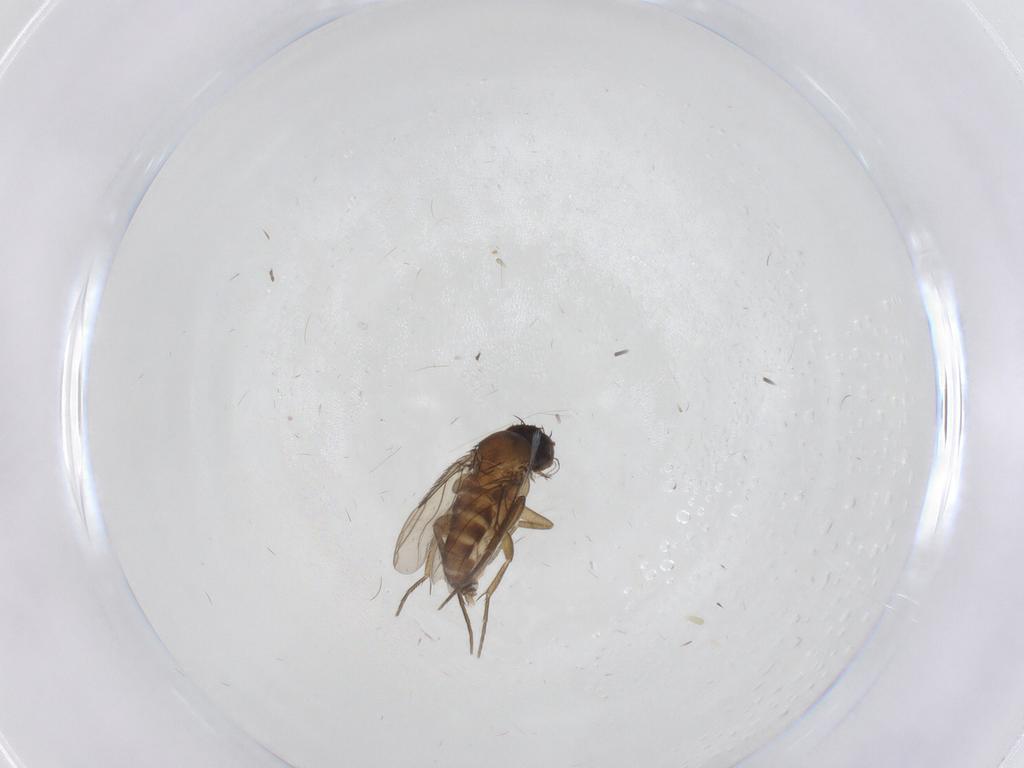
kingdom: Animalia
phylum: Arthropoda
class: Insecta
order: Diptera
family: Phoridae
